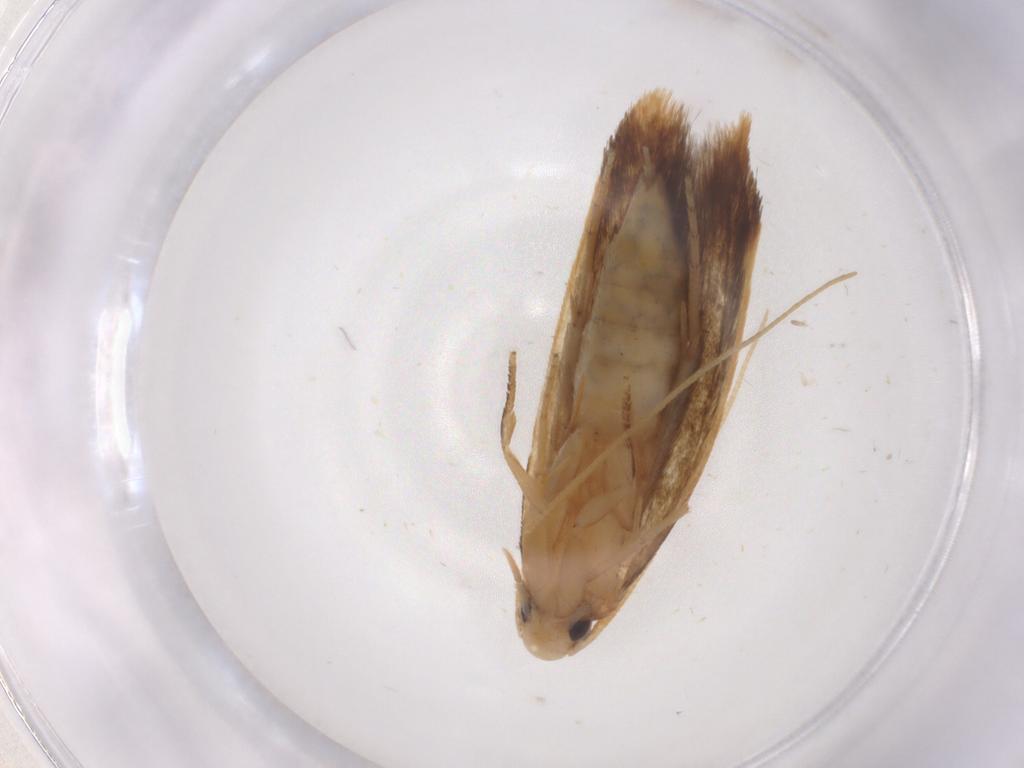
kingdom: Animalia
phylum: Arthropoda
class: Insecta
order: Lepidoptera
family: Tineidae
